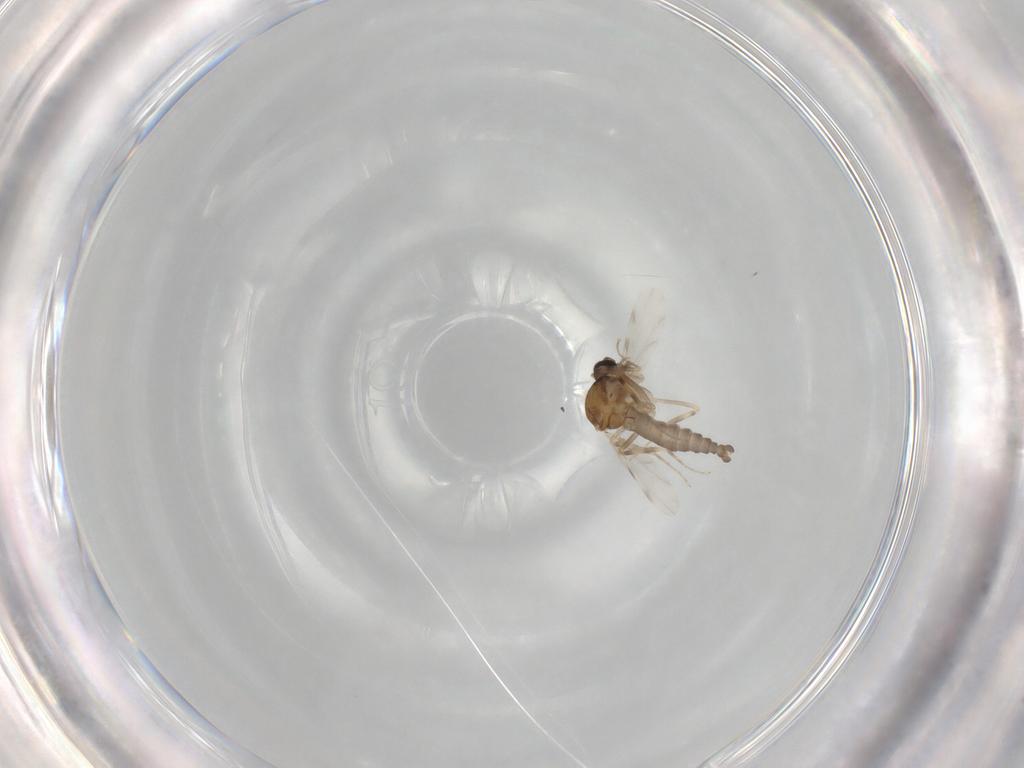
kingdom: Animalia
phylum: Arthropoda
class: Insecta
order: Diptera
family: Ceratopogonidae
